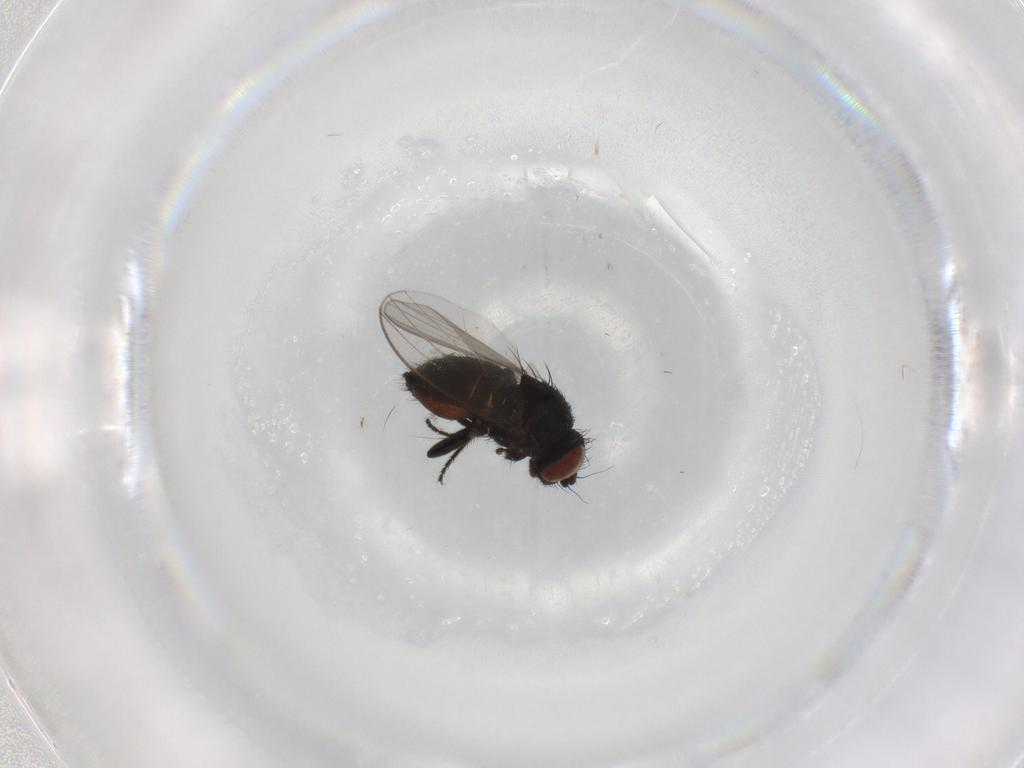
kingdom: Animalia
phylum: Arthropoda
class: Insecta
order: Diptera
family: Milichiidae
